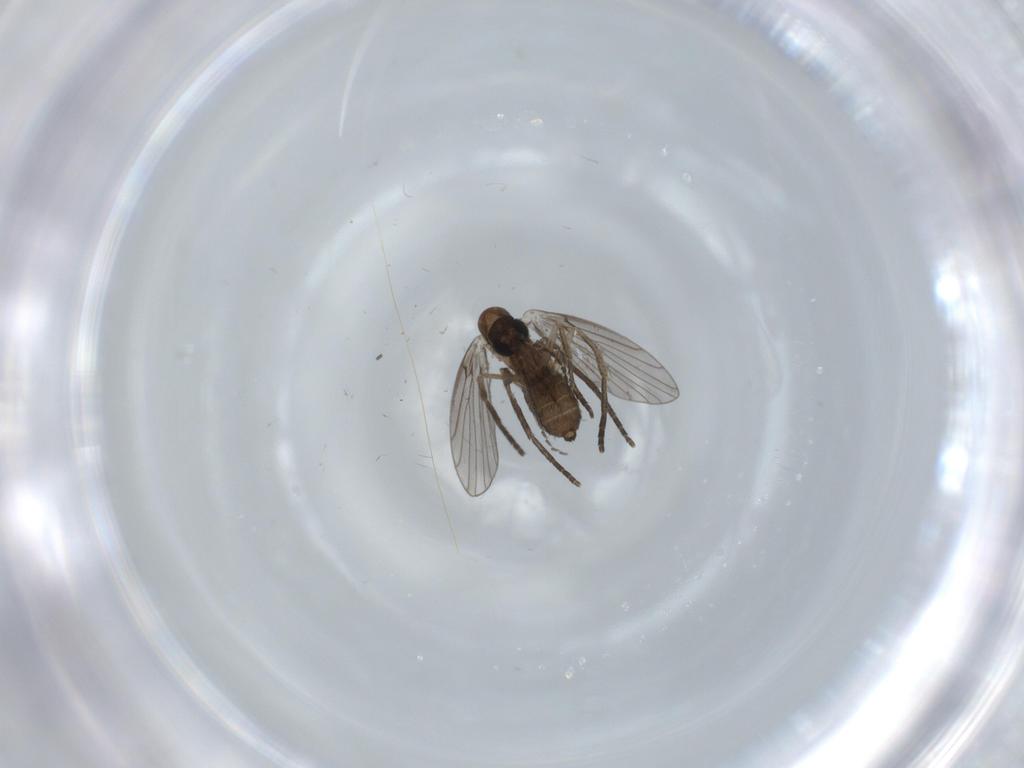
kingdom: Animalia
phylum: Arthropoda
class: Insecta
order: Diptera
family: Psychodidae
